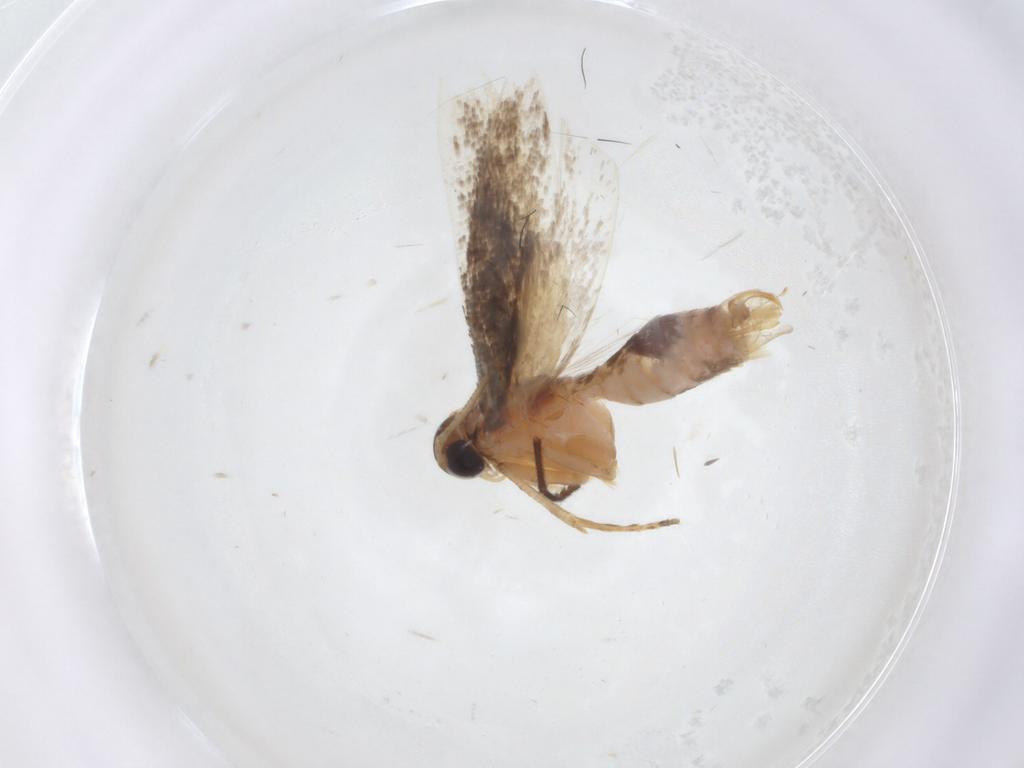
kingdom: Animalia
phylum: Arthropoda
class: Insecta
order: Lepidoptera
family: Gelechiidae
